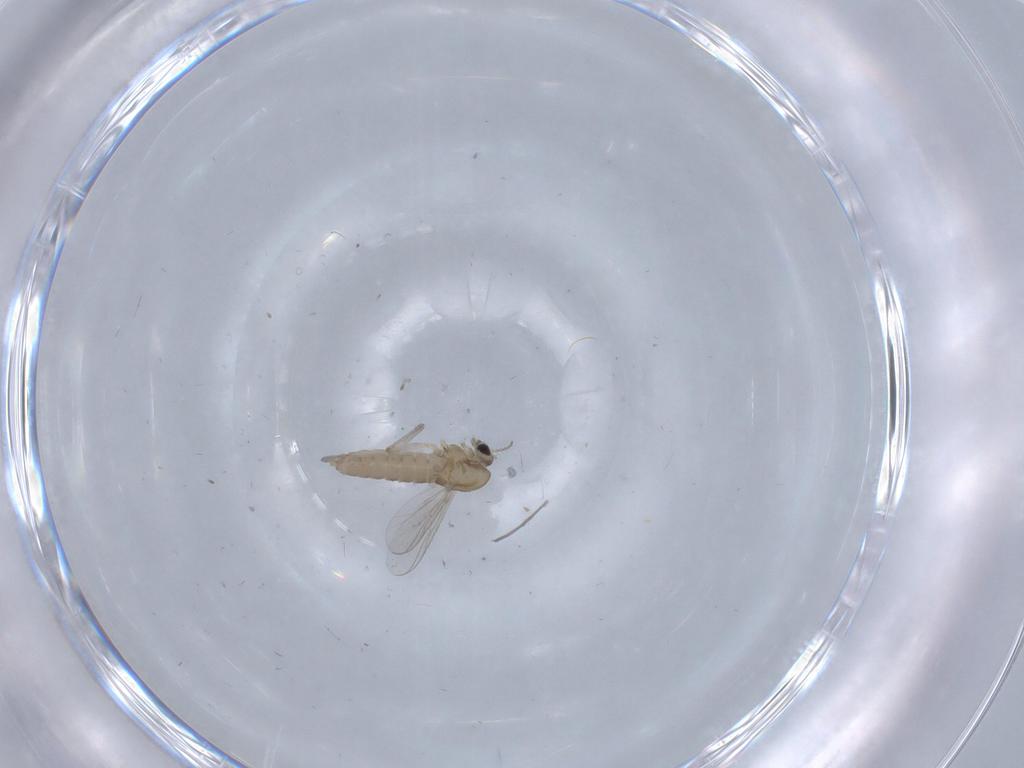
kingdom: Animalia
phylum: Arthropoda
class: Insecta
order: Diptera
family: Chironomidae
